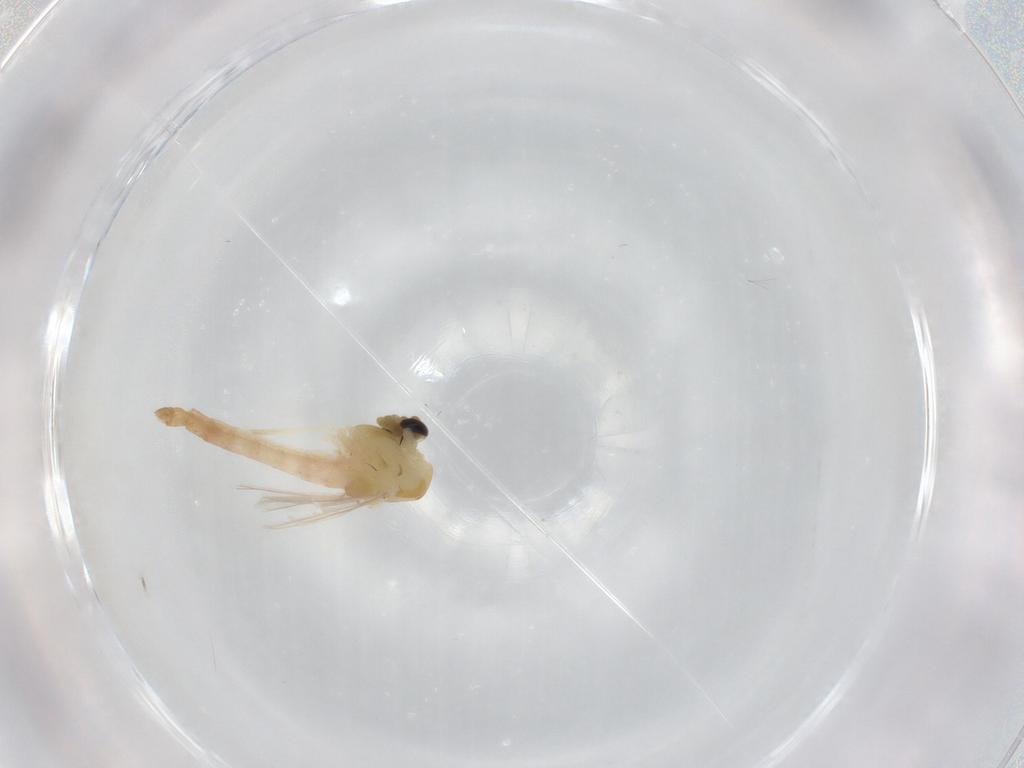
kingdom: Animalia
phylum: Arthropoda
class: Insecta
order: Diptera
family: Chironomidae
